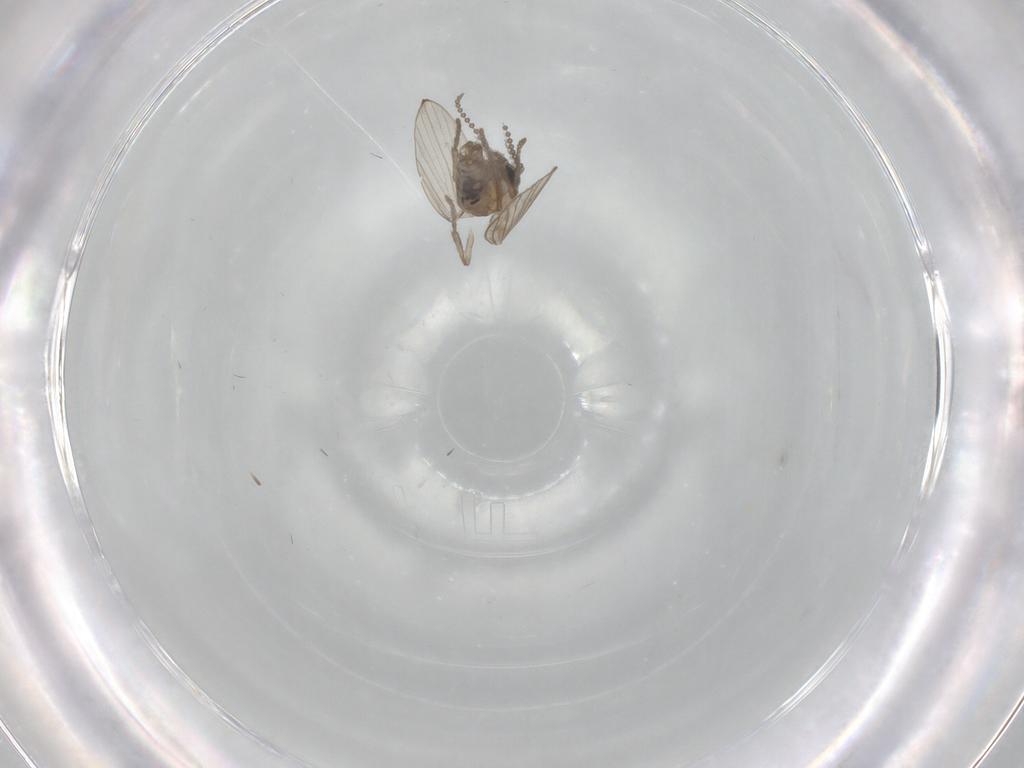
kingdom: Animalia
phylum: Arthropoda
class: Insecta
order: Diptera
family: Psychodidae
